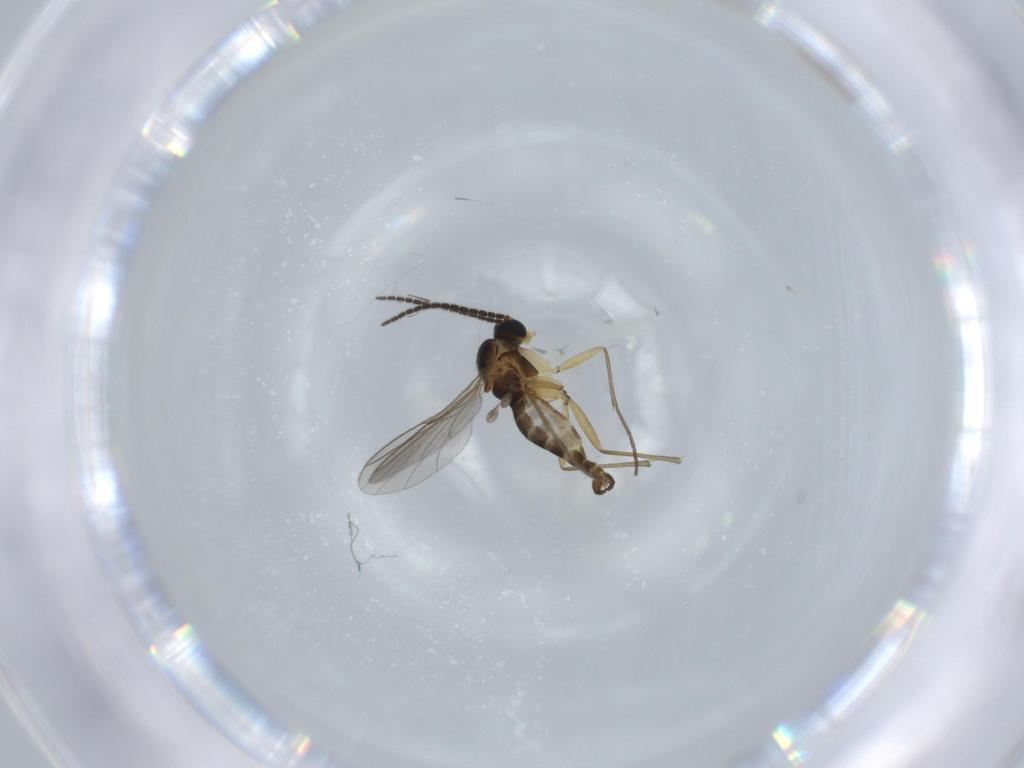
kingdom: Animalia
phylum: Arthropoda
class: Insecta
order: Diptera
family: Sciaridae
